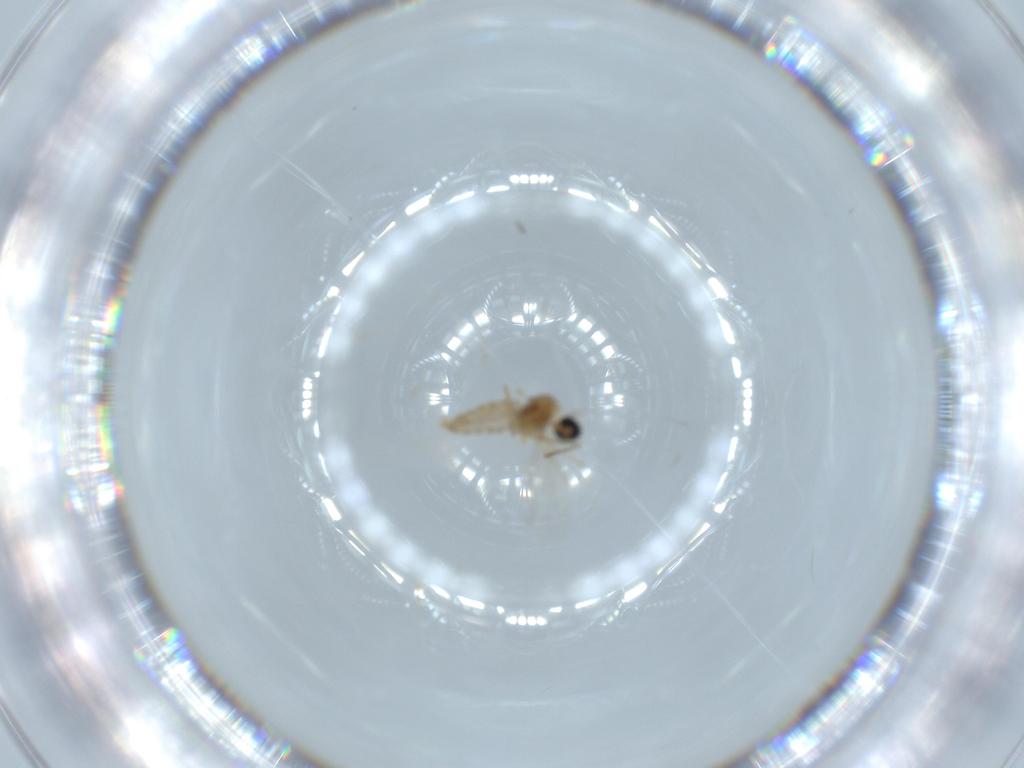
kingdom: Animalia
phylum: Arthropoda
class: Insecta
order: Diptera
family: Cecidomyiidae
